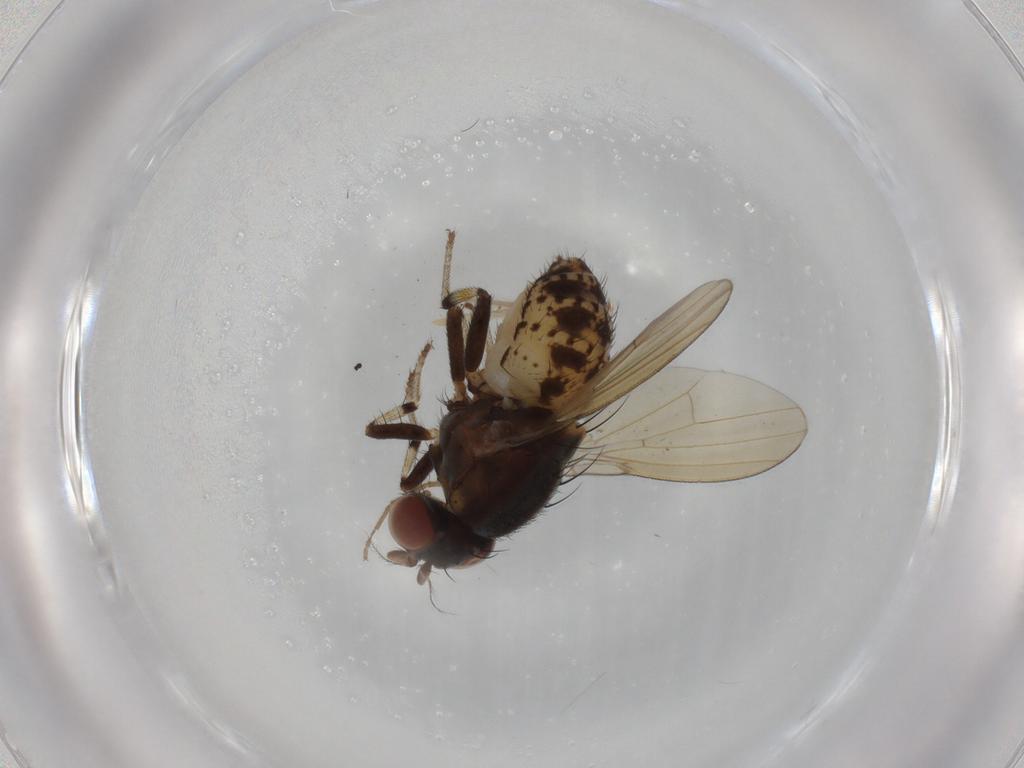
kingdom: Animalia
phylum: Arthropoda
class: Insecta
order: Diptera
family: Chironomidae
